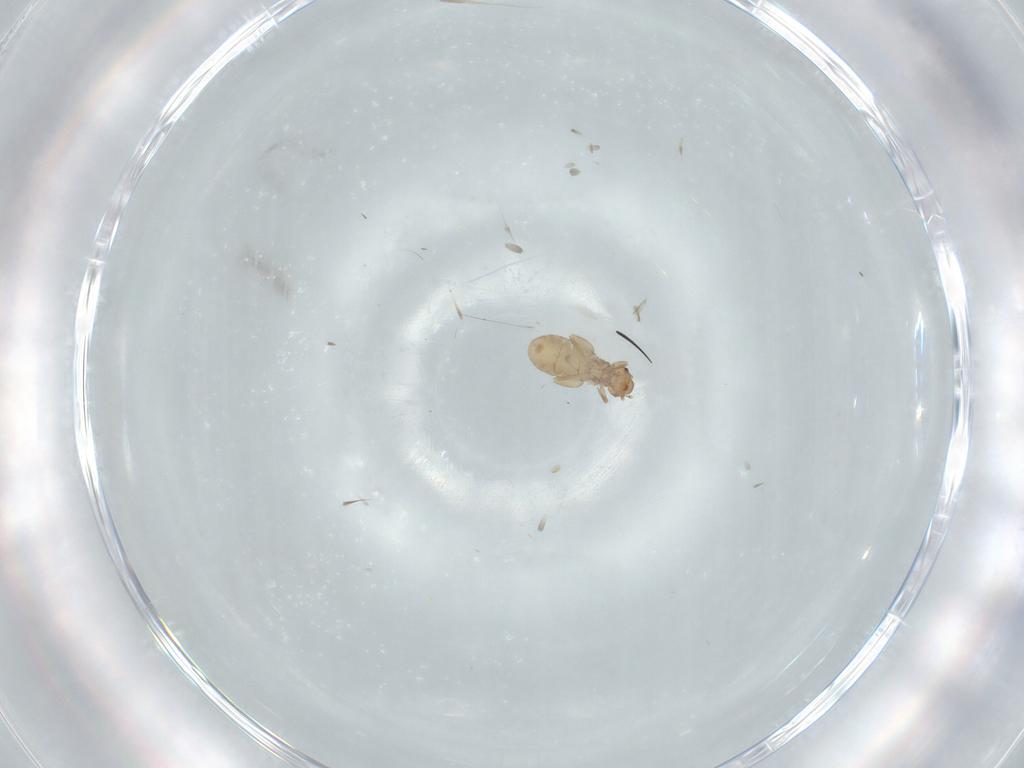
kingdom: Animalia
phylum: Arthropoda
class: Insecta
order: Psocodea
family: Liposcelididae
